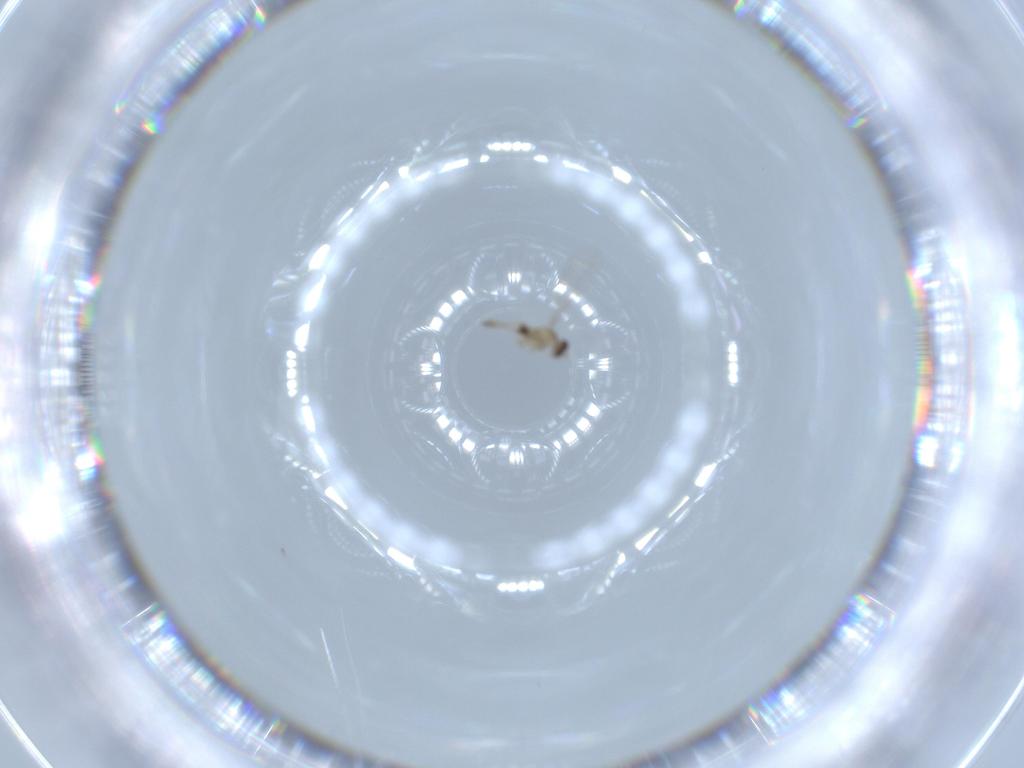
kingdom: Animalia
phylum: Arthropoda
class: Insecta
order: Diptera
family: Cecidomyiidae
